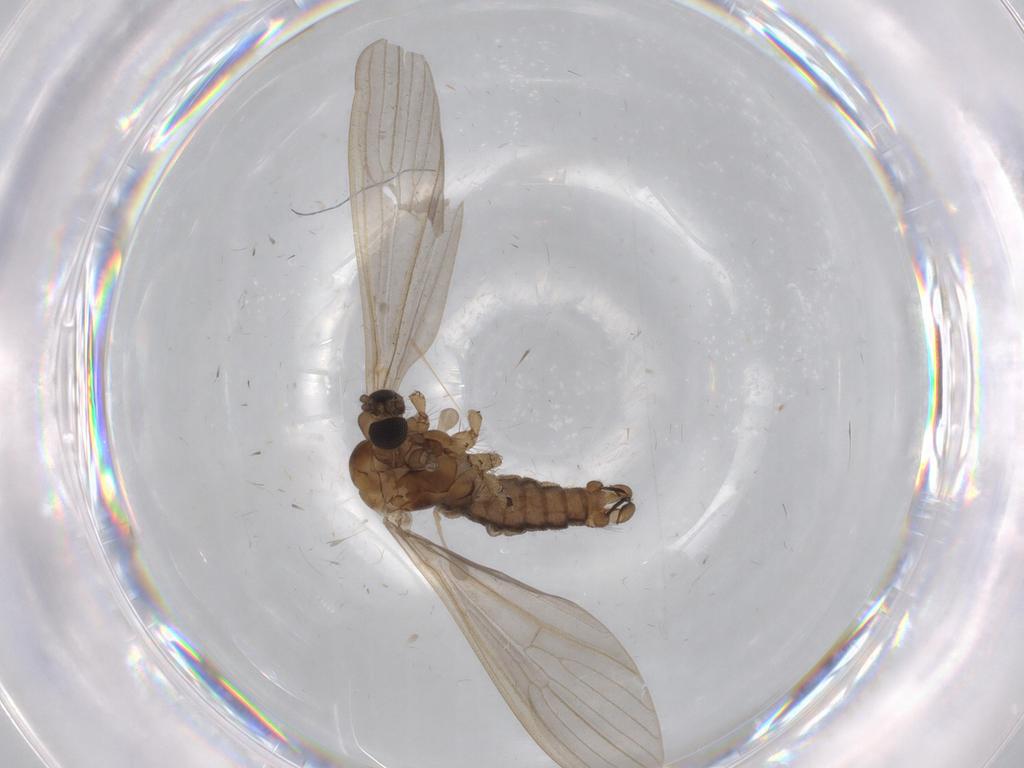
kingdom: Animalia
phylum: Arthropoda
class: Insecta
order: Diptera
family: Limoniidae
